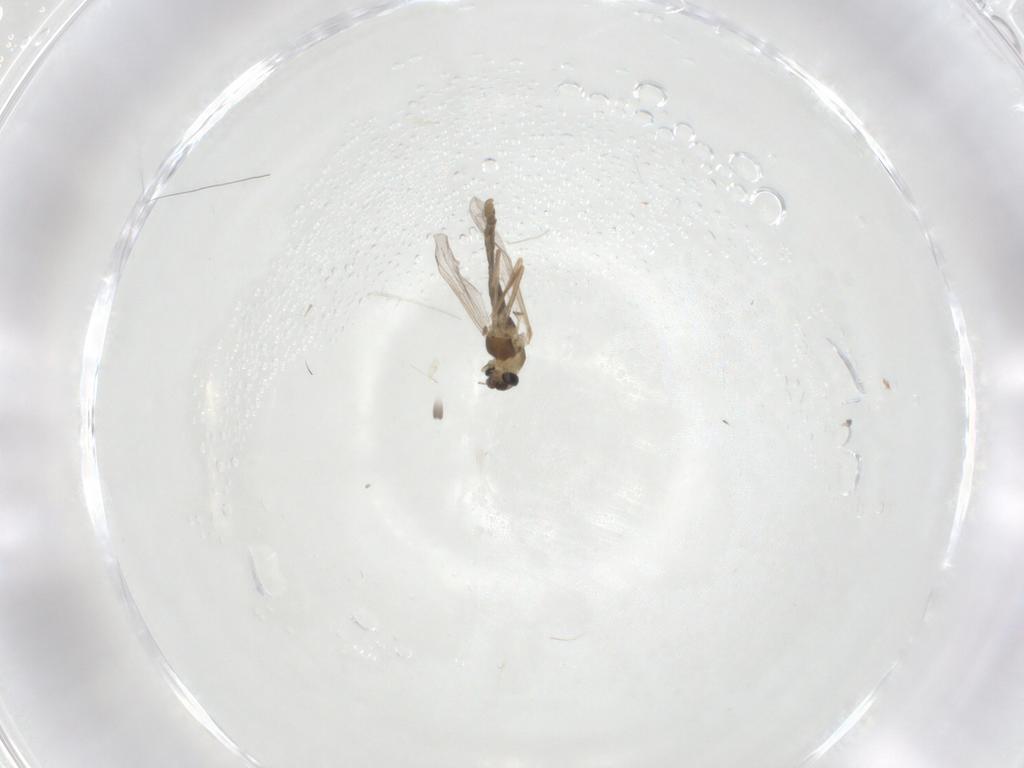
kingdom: Animalia
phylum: Arthropoda
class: Insecta
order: Diptera
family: Chironomidae
